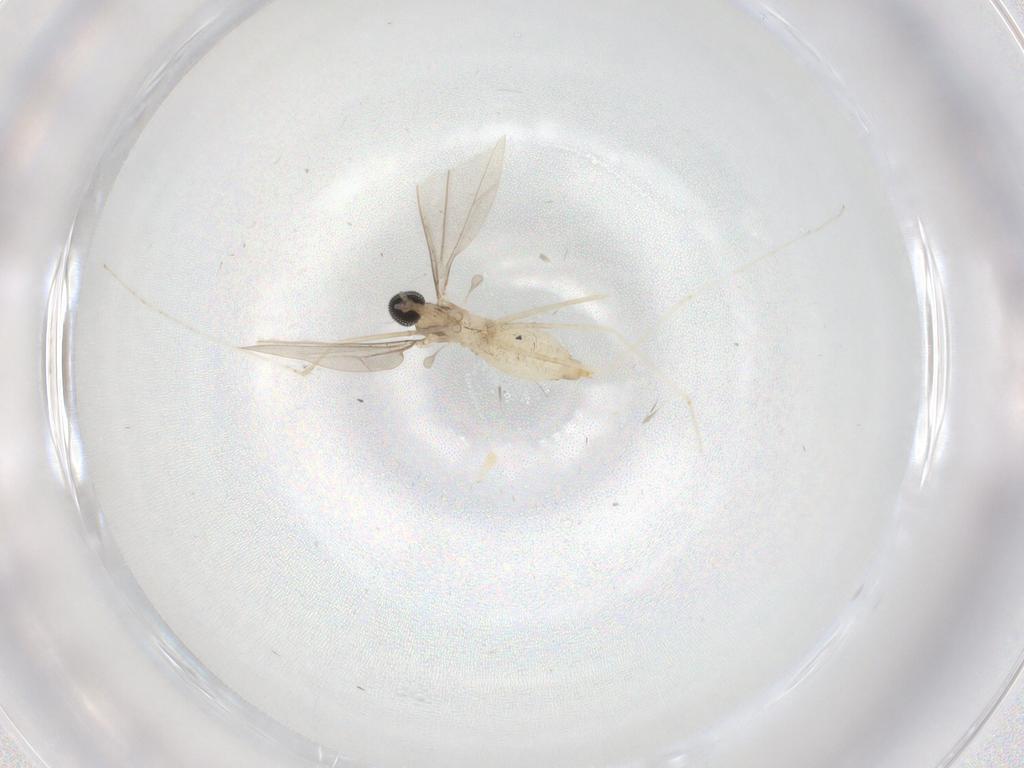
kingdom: Animalia
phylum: Arthropoda
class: Insecta
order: Diptera
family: Cecidomyiidae
